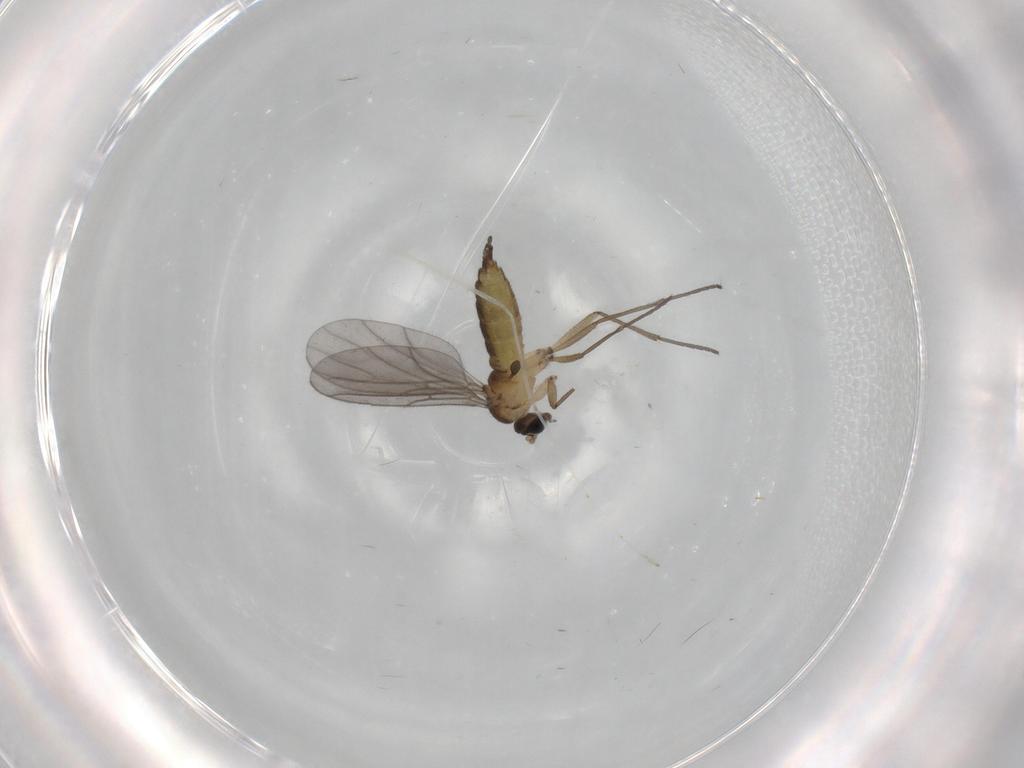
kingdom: Animalia
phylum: Arthropoda
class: Insecta
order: Diptera
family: Sciaridae
